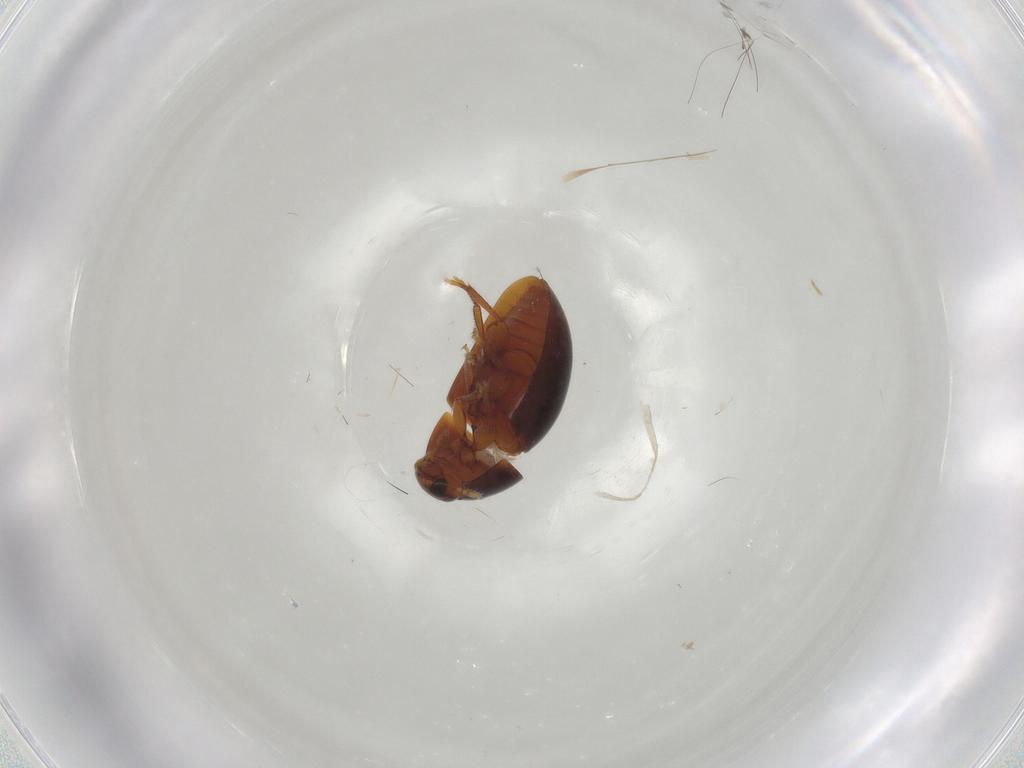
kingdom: Animalia
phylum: Arthropoda
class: Insecta
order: Coleoptera
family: Phalacridae
